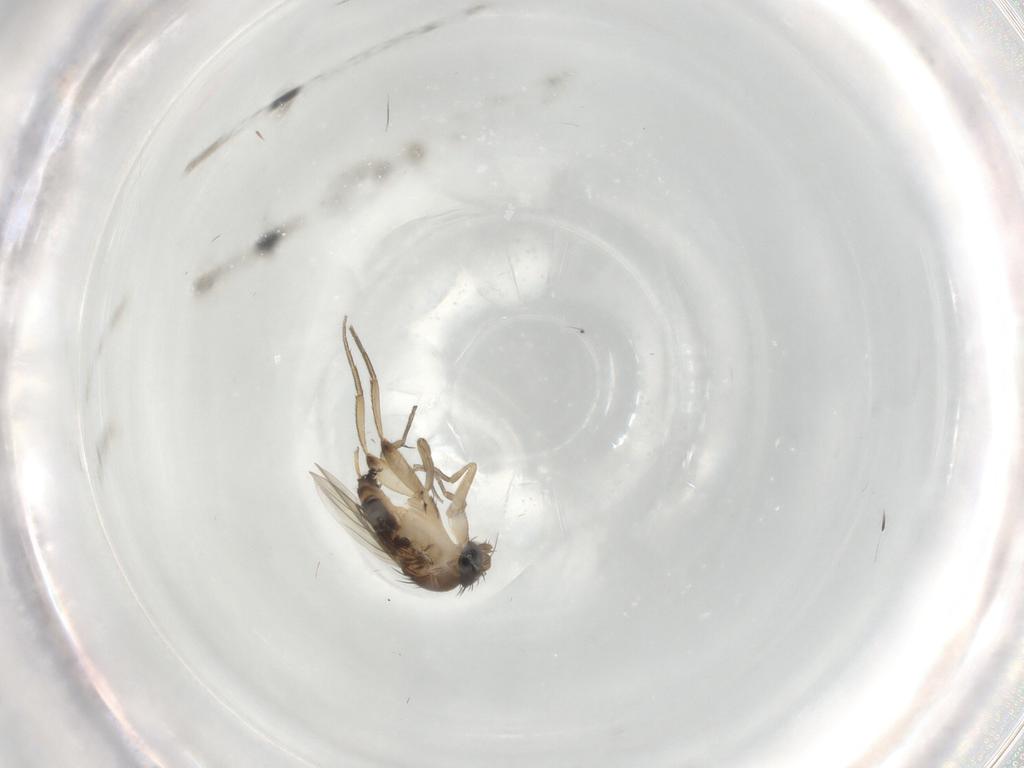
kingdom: Animalia
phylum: Arthropoda
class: Insecta
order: Diptera
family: Phoridae
